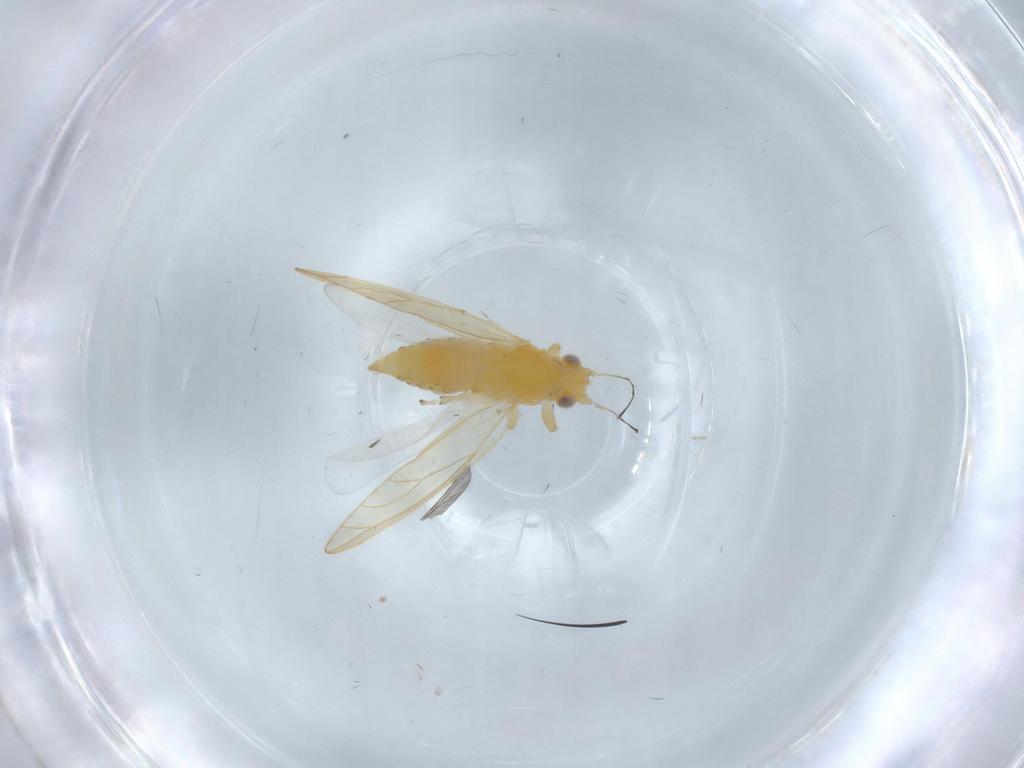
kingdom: Animalia
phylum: Arthropoda
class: Insecta
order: Hemiptera
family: Triozidae
